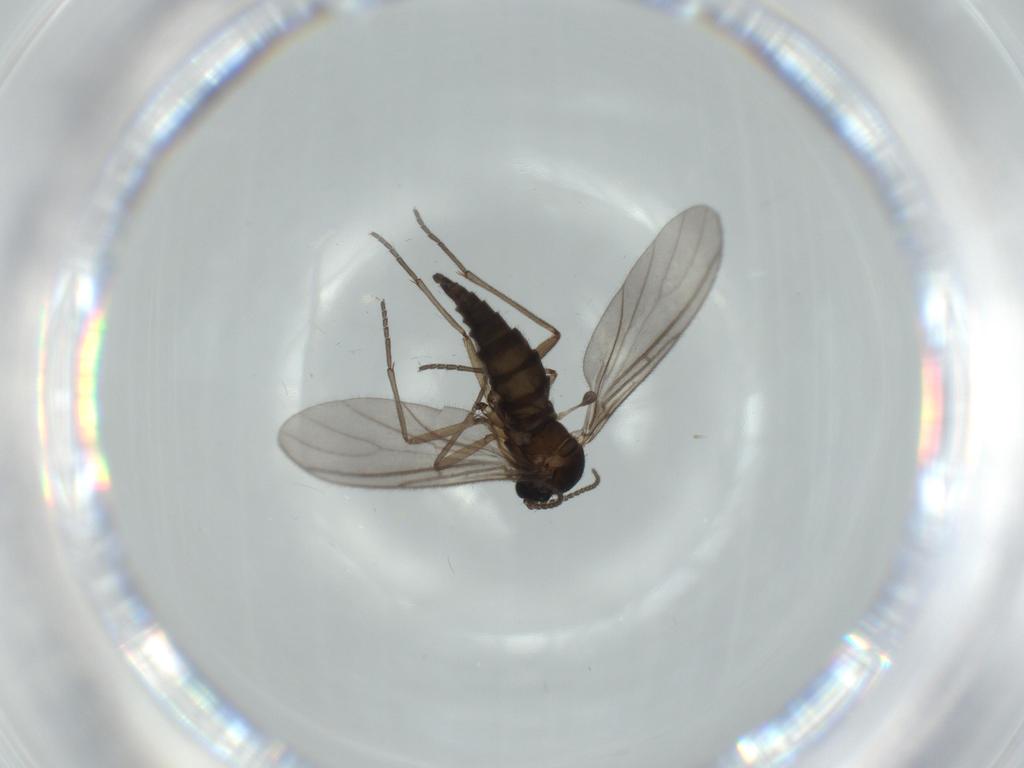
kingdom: Animalia
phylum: Arthropoda
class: Insecta
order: Diptera
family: Sciaridae
